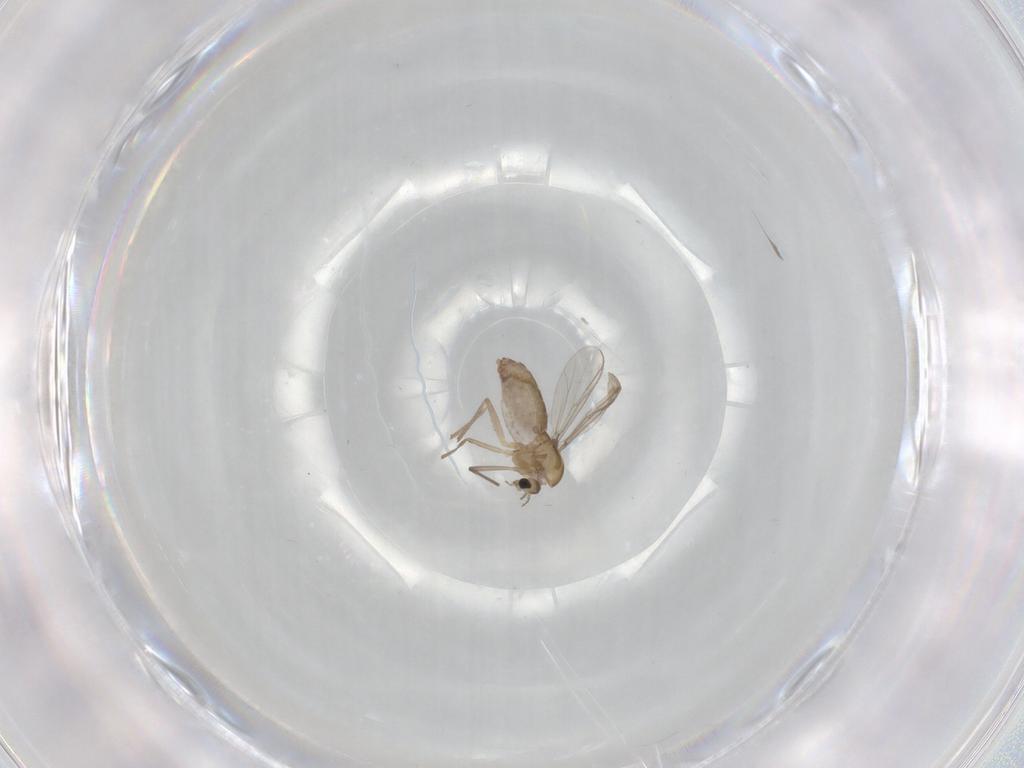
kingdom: Animalia
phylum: Arthropoda
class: Insecta
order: Diptera
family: Chironomidae
